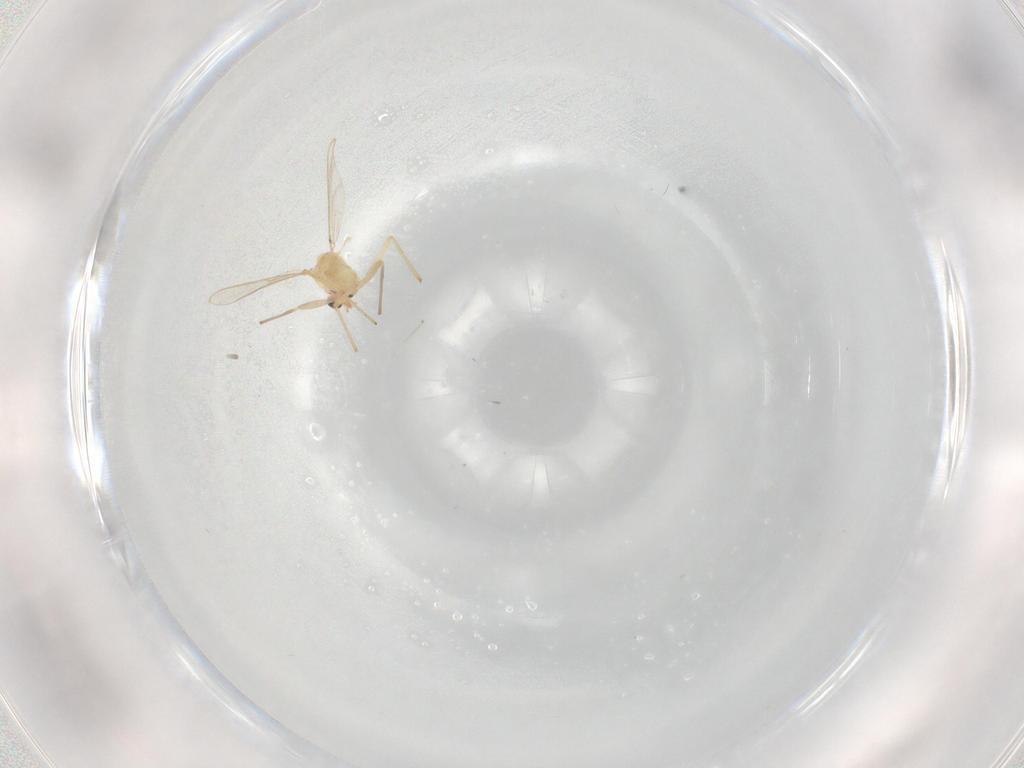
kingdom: Animalia
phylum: Arthropoda
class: Insecta
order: Diptera
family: Chironomidae
